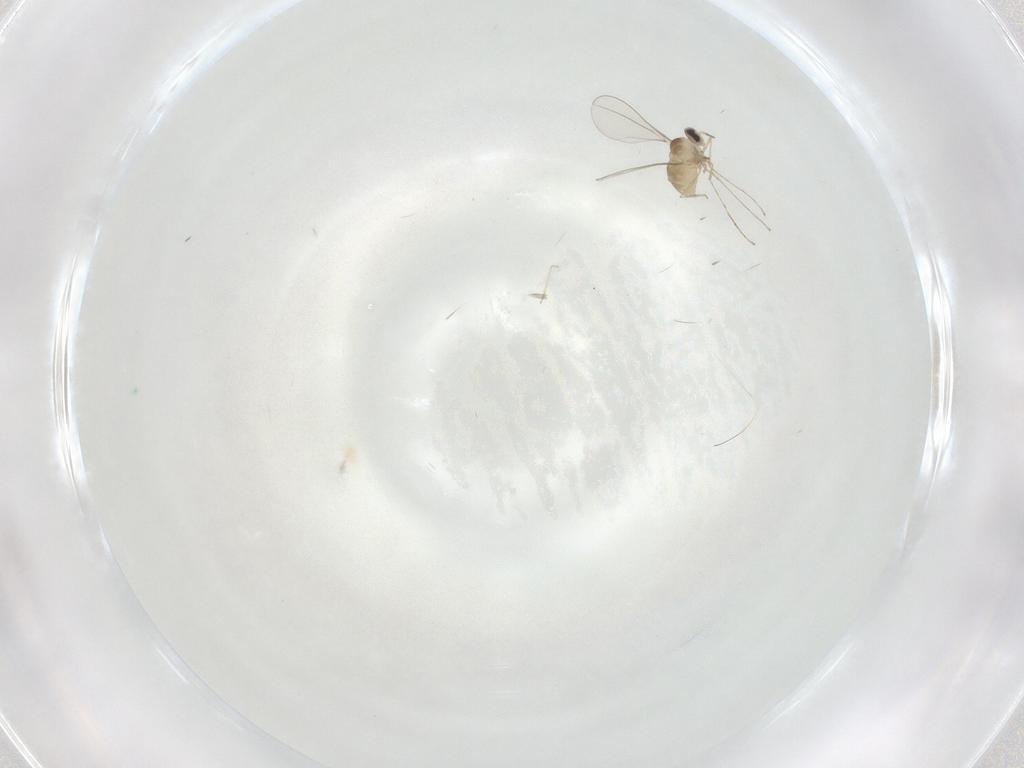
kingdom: Animalia
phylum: Arthropoda
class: Insecta
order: Diptera
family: Cecidomyiidae
